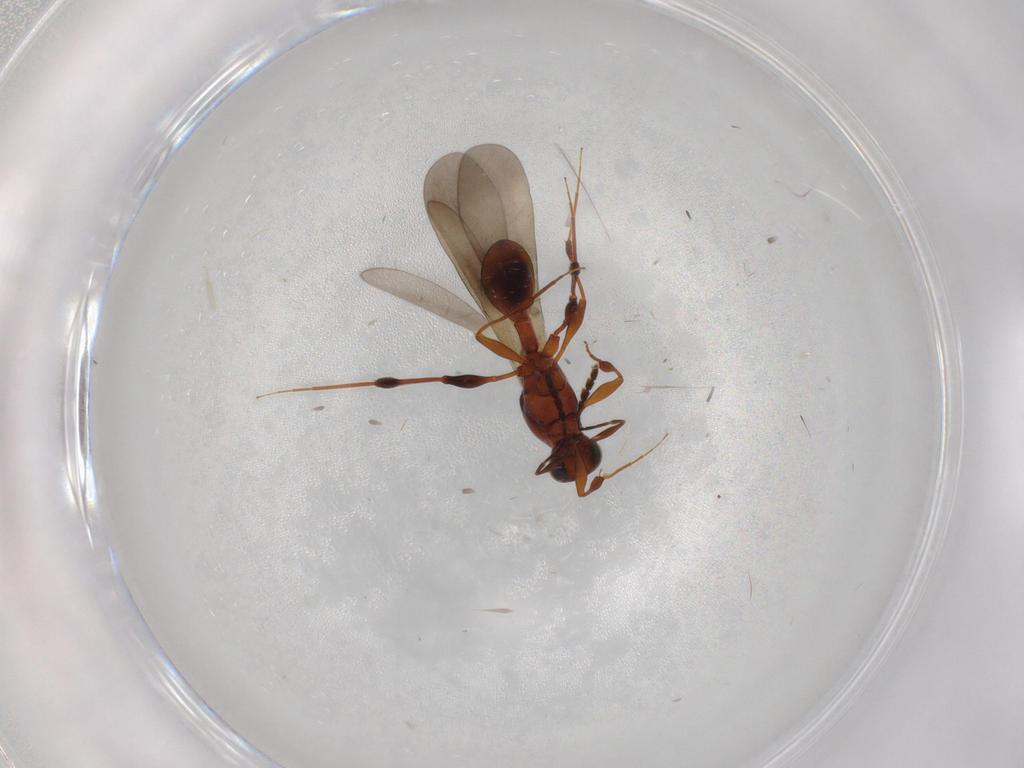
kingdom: Animalia
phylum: Arthropoda
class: Insecta
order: Hymenoptera
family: Platygastridae
